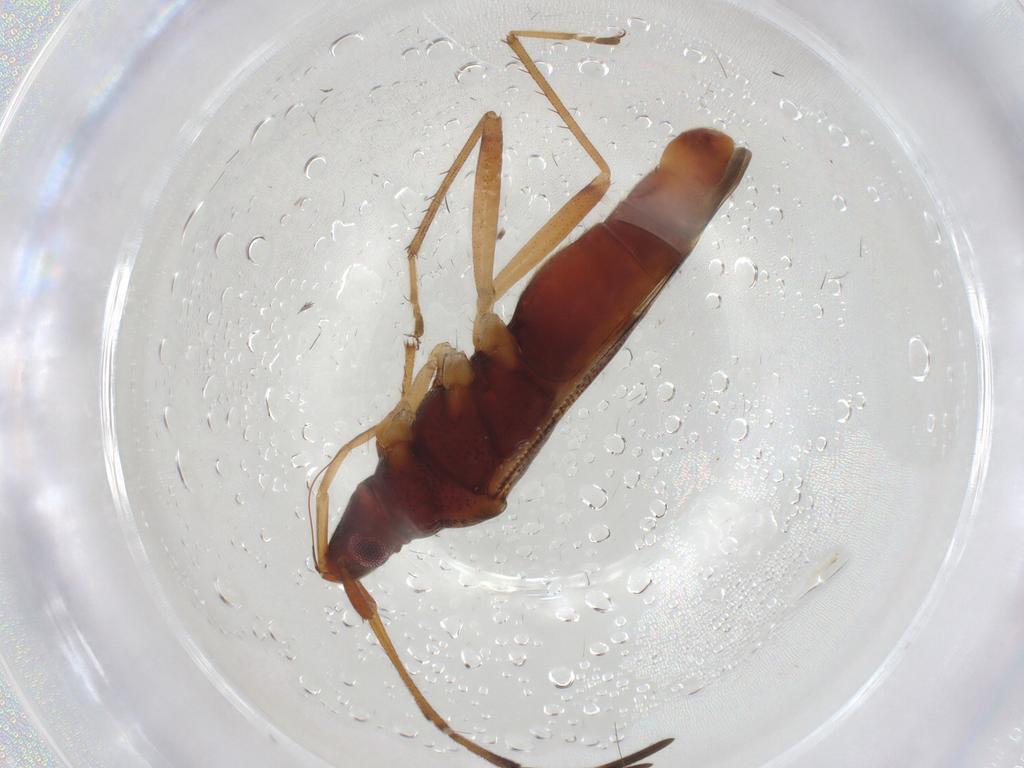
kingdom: Animalia
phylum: Arthropoda
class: Insecta
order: Hemiptera
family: Rhyparochromidae
